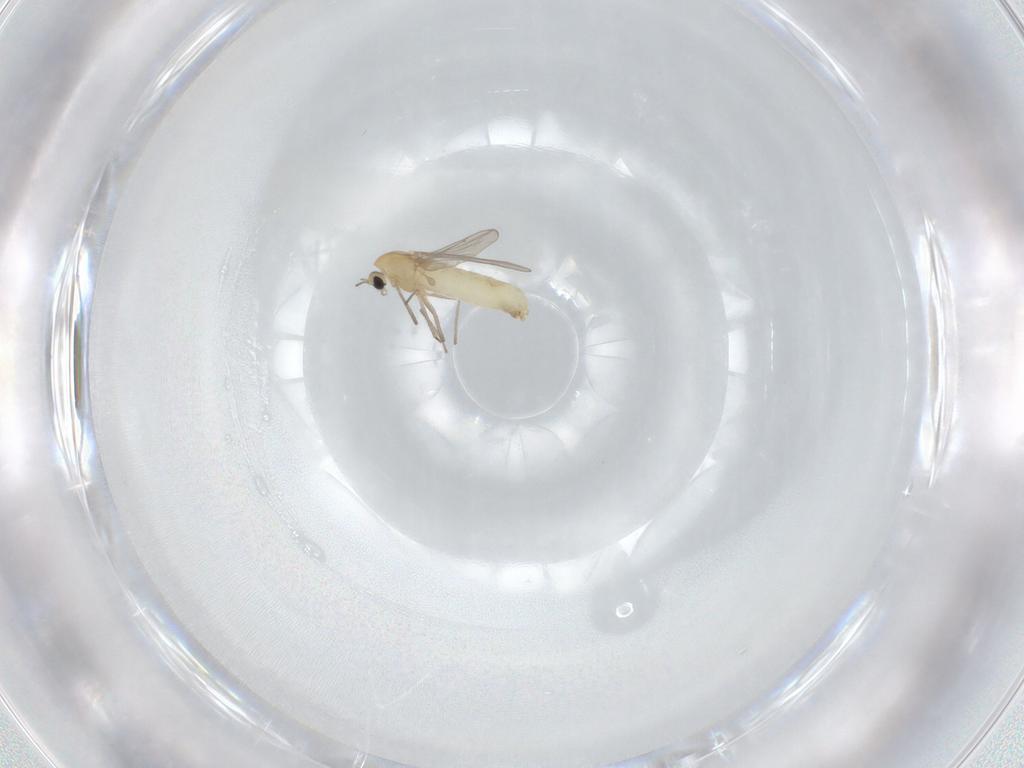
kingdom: Animalia
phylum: Arthropoda
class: Insecta
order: Diptera
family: Chironomidae
